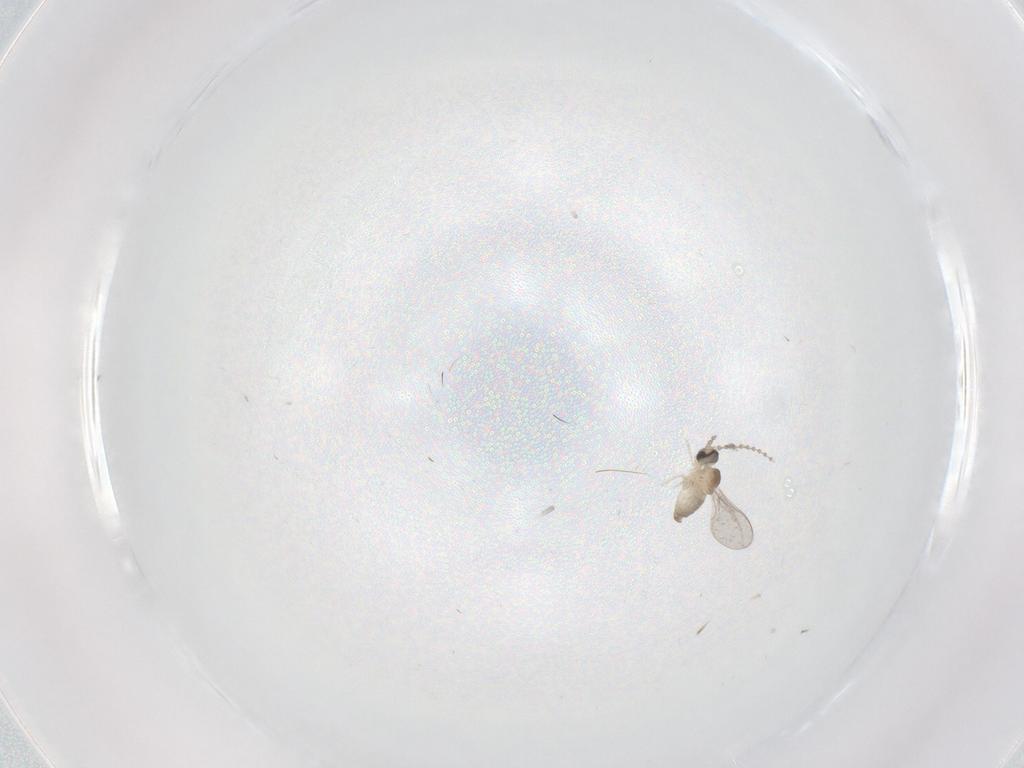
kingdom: Animalia
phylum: Arthropoda
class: Insecta
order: Diptera
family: Cecidomyiidae
